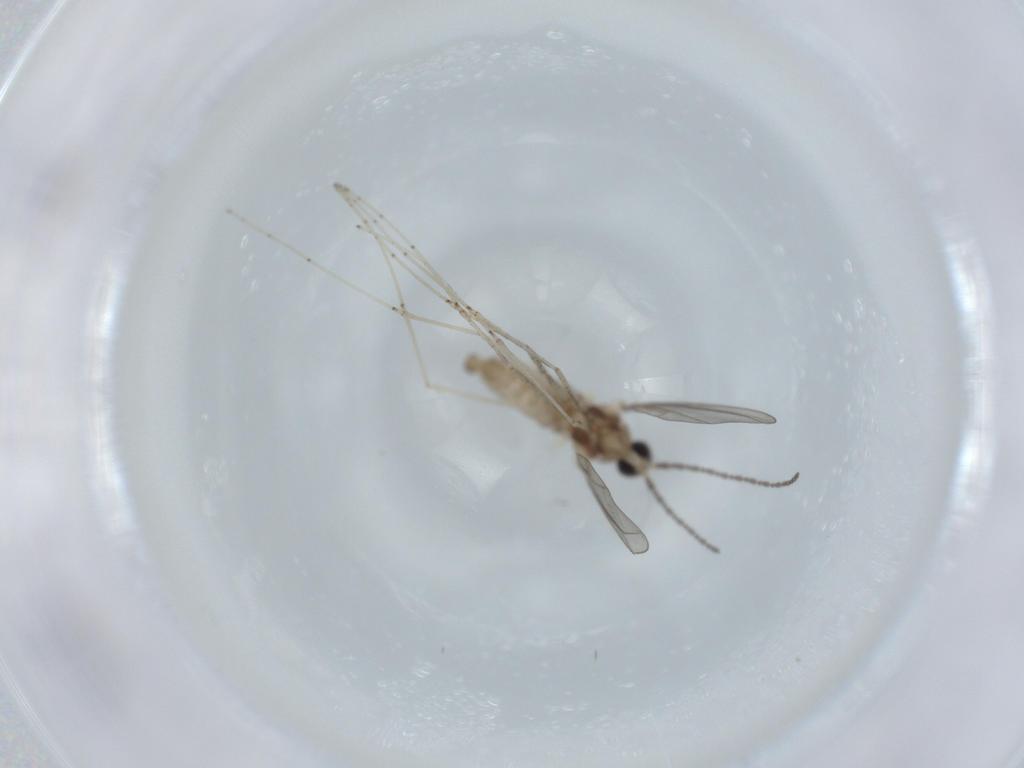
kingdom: Animalia
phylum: Arthropoda
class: Insecta
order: Diptera
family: Cecidomyiidae
